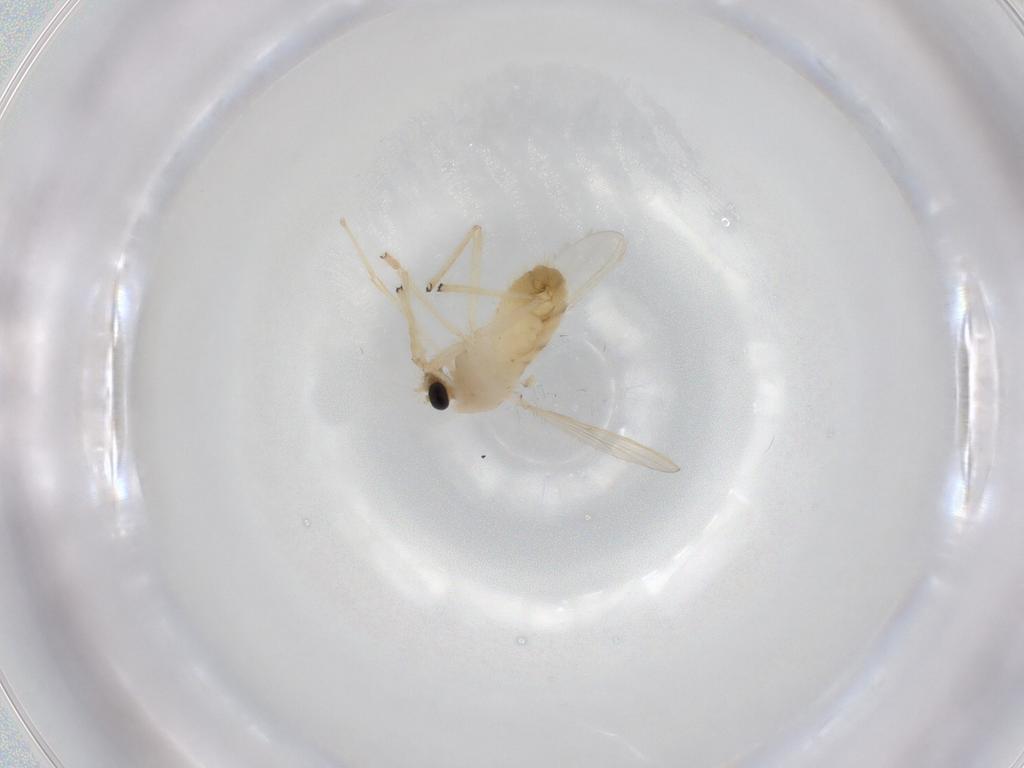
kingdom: Animalia
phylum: Arthropoda
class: Insecta
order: Diptera
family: Chironomidae
